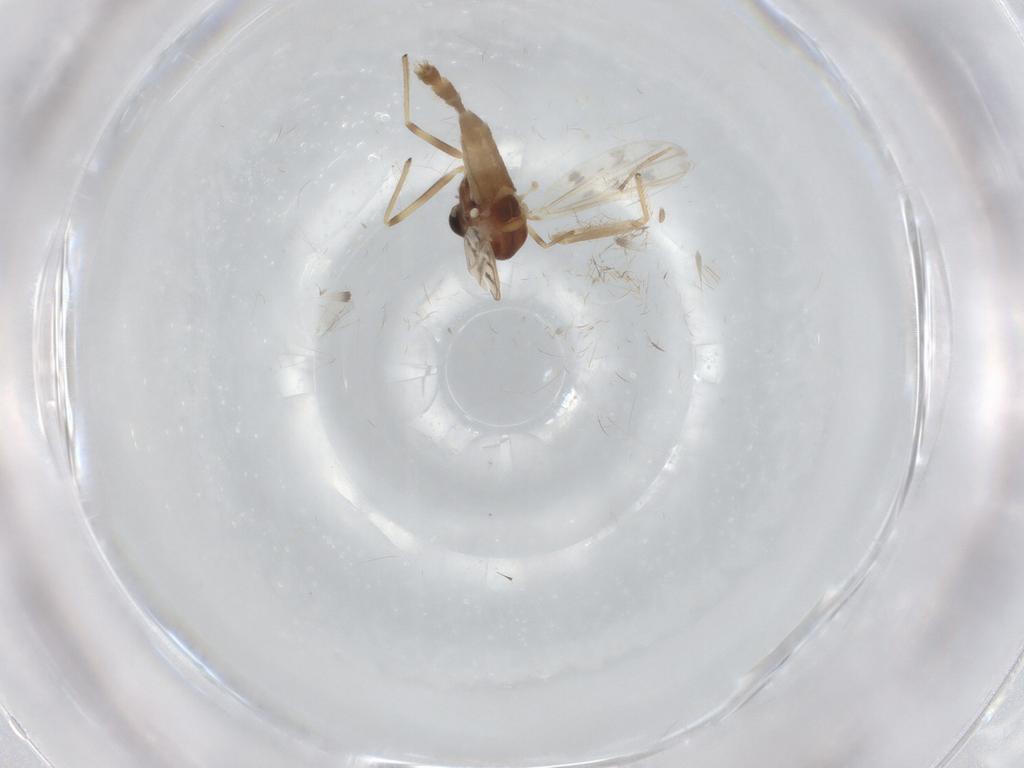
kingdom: Animalia
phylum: Arthropoda
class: Insecta
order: Diptera
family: Chironomidae
